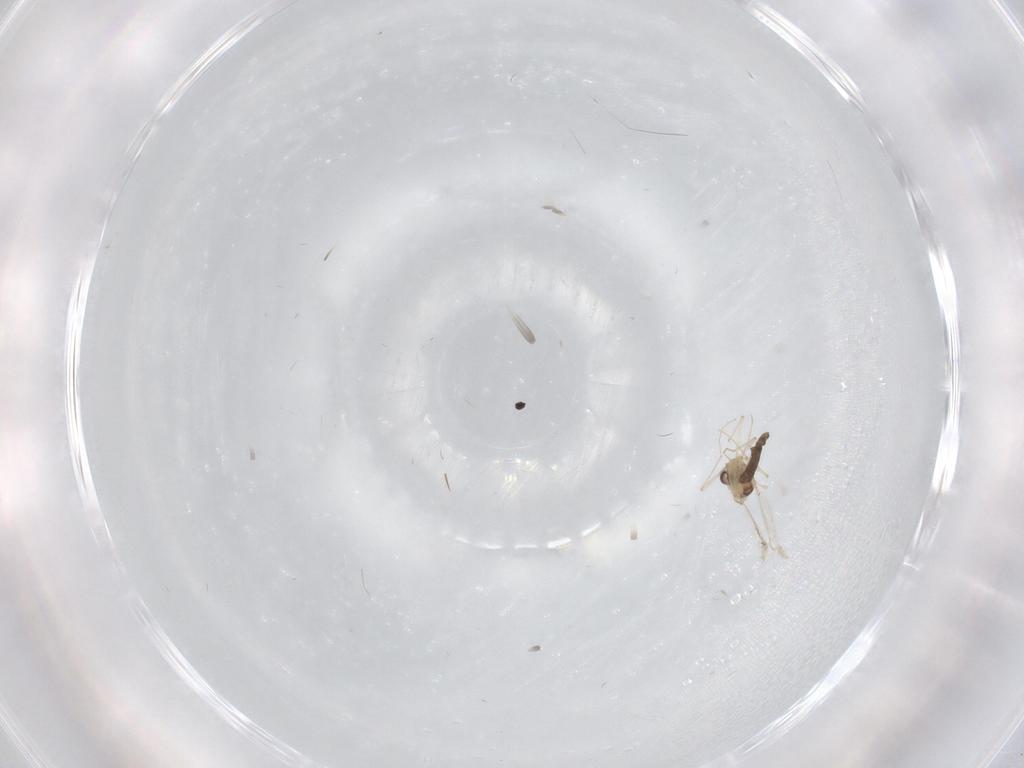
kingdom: Animalia
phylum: Arthropoda
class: Insecta
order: Diptera
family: Chironomidae
